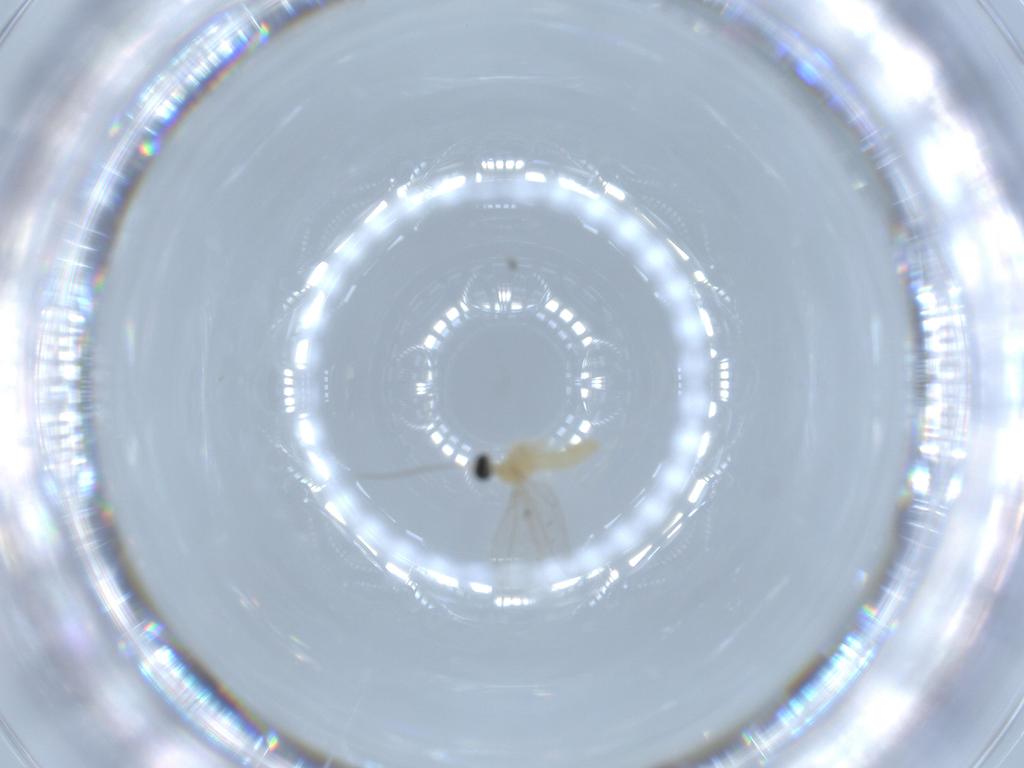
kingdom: Animalia
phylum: Arthropoda
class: Insecta
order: Diptera
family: Cecidomyiidae
